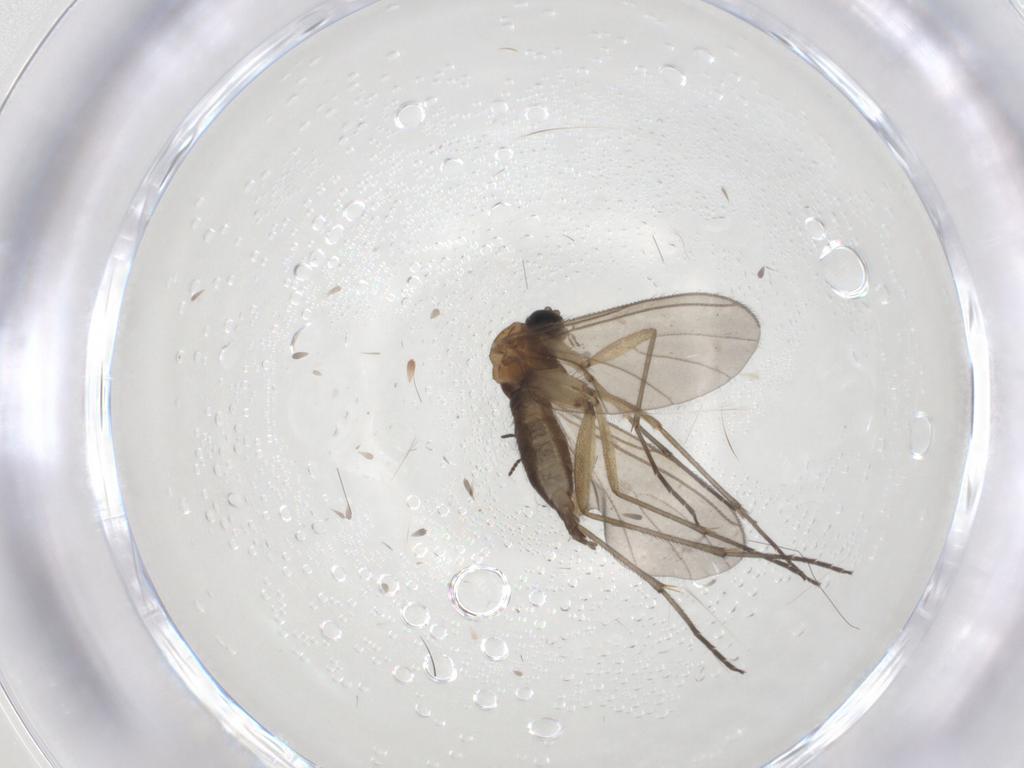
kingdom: Animalia
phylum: Arthropoda
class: Insecta
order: Diptera
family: Sciaridae
